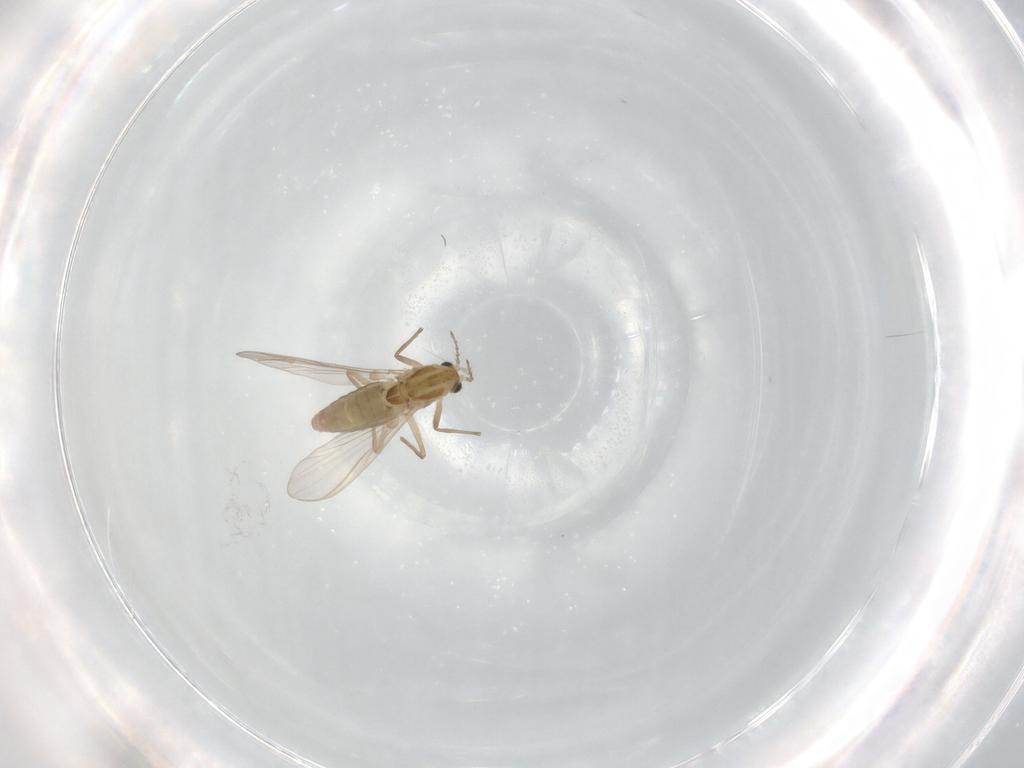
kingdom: Animalia
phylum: Arthropoda
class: Insecta
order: Diptera
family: Chironomidae
